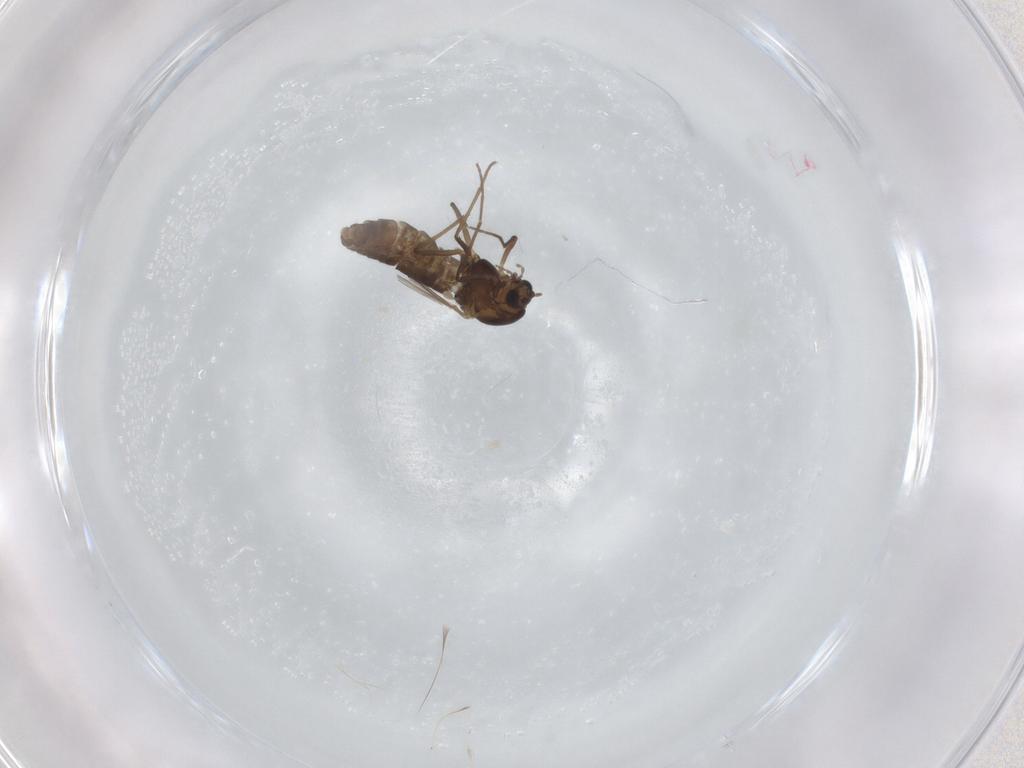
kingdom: Animalia
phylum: Arthropoda
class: Insecta
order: Diptera
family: Chironomidae
